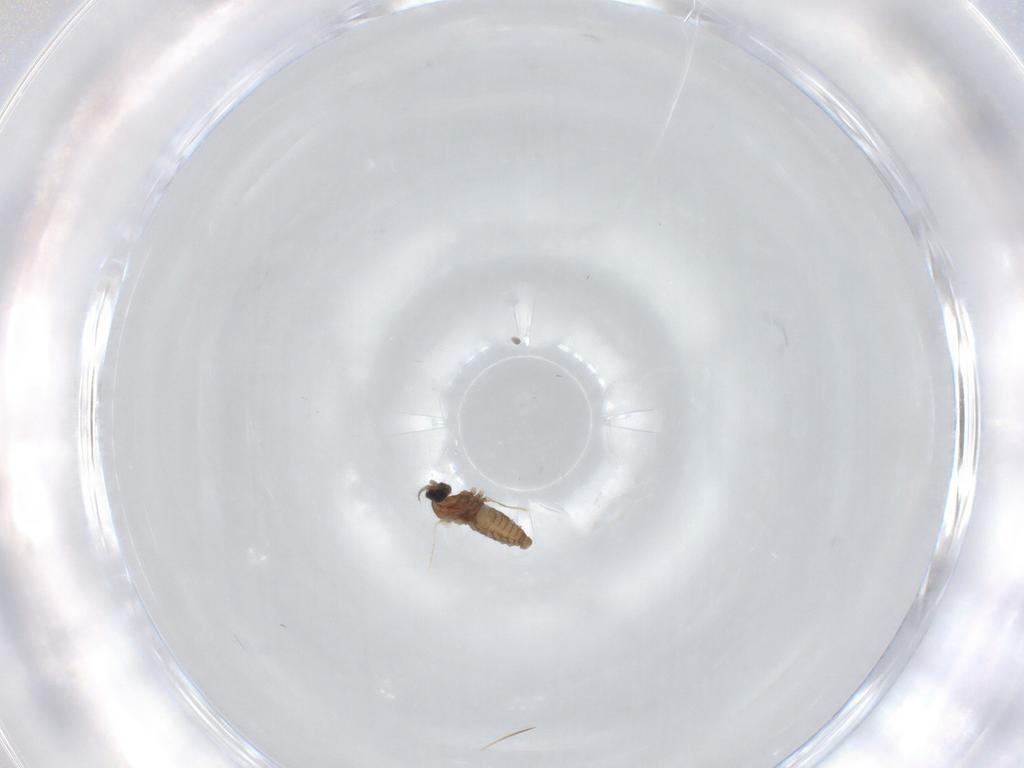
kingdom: Animalia
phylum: Arthropoda
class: Insecta
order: Diptera
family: Cecidomyiidae
